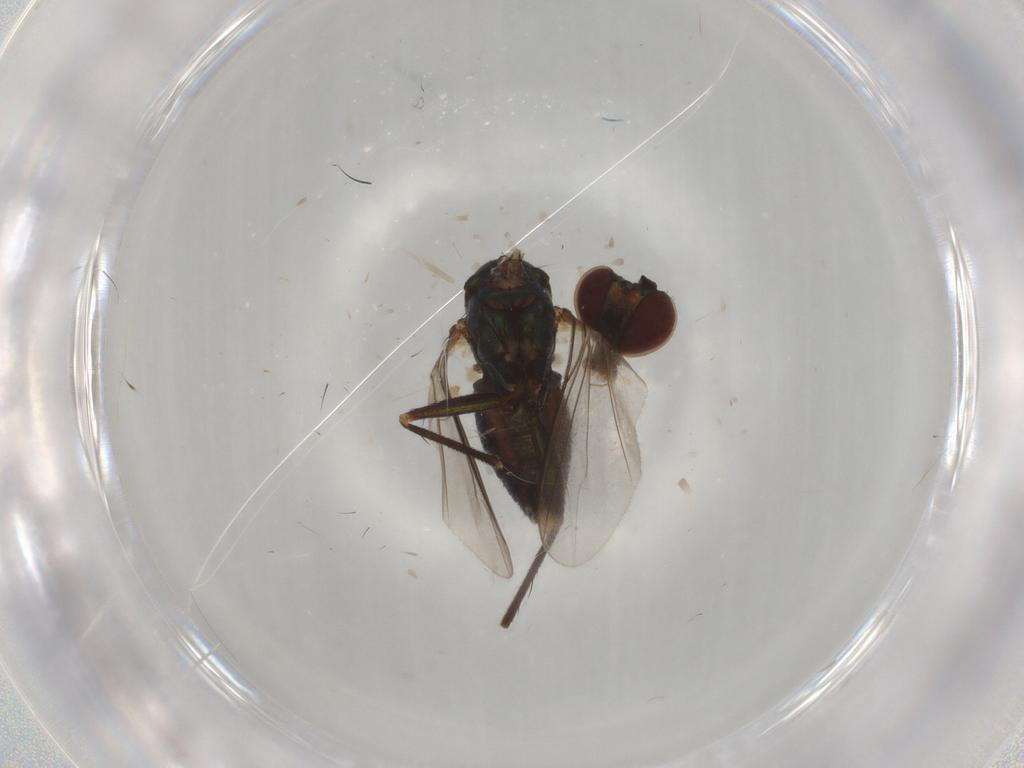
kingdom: Animalia
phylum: Arthropoda
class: Insecta
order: Diptera
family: Dolichopodidae
